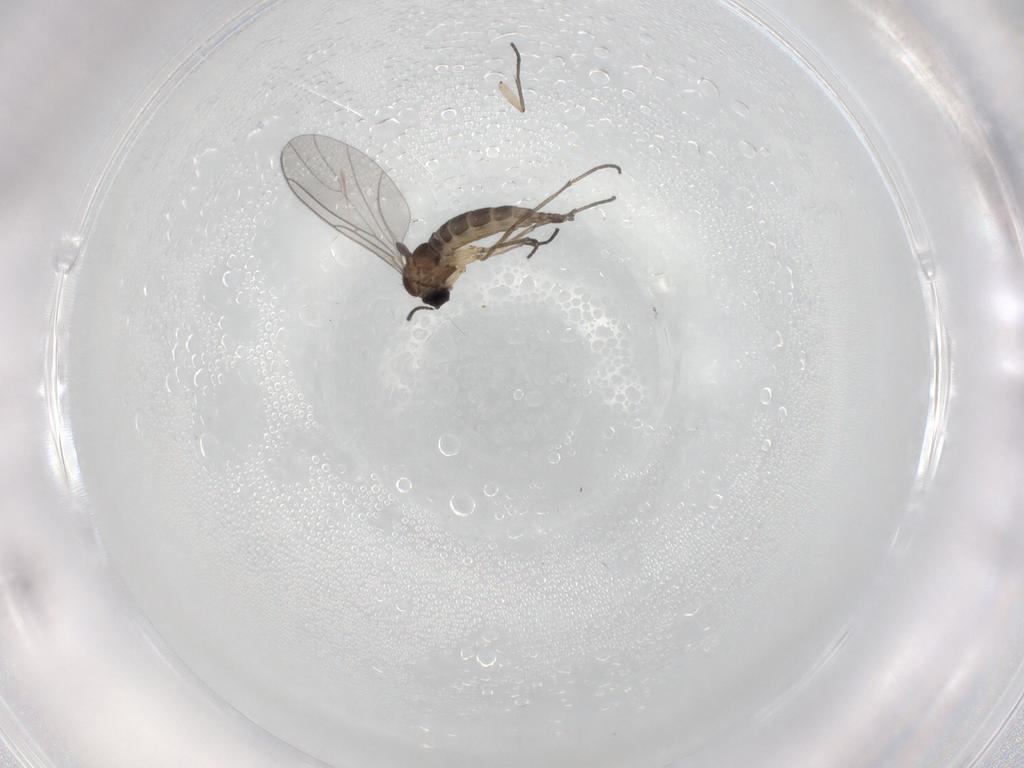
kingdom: Animalia
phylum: Arthropoda
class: Insecta
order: Diptera
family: Sciaridae
